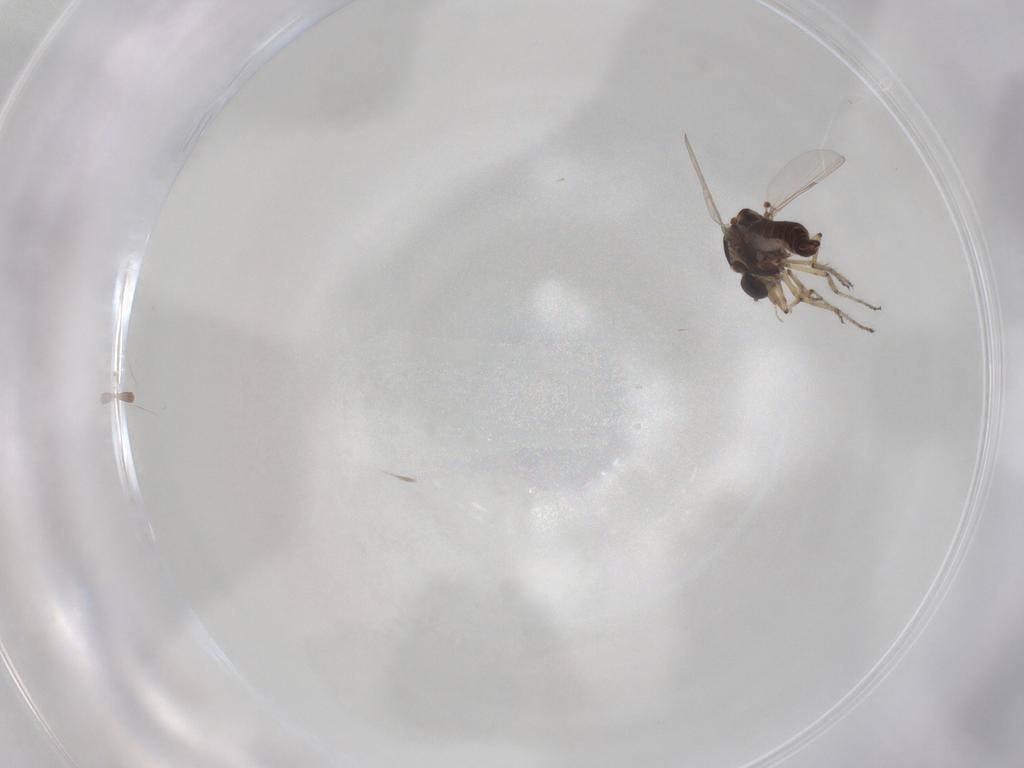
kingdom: Animalia
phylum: Arthropoda
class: Insecta
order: Diptera
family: Ceratopogonidae
